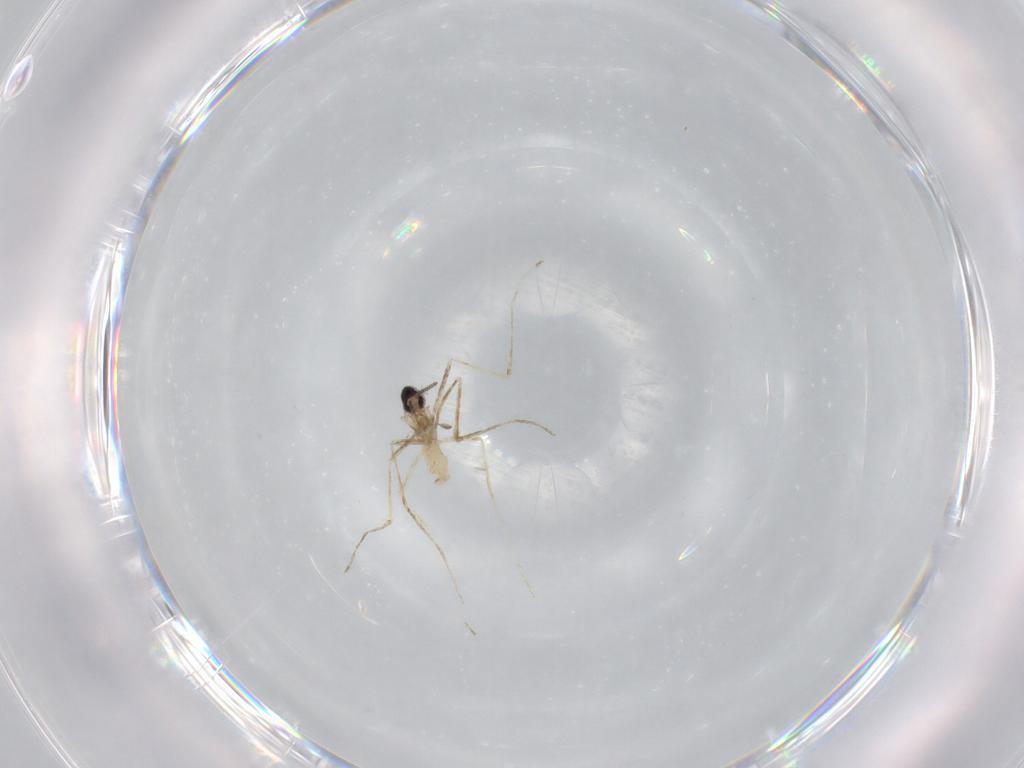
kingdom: Animalia
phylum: Arthropoda
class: Insecta
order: Diptera
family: Cecidomyiidae
